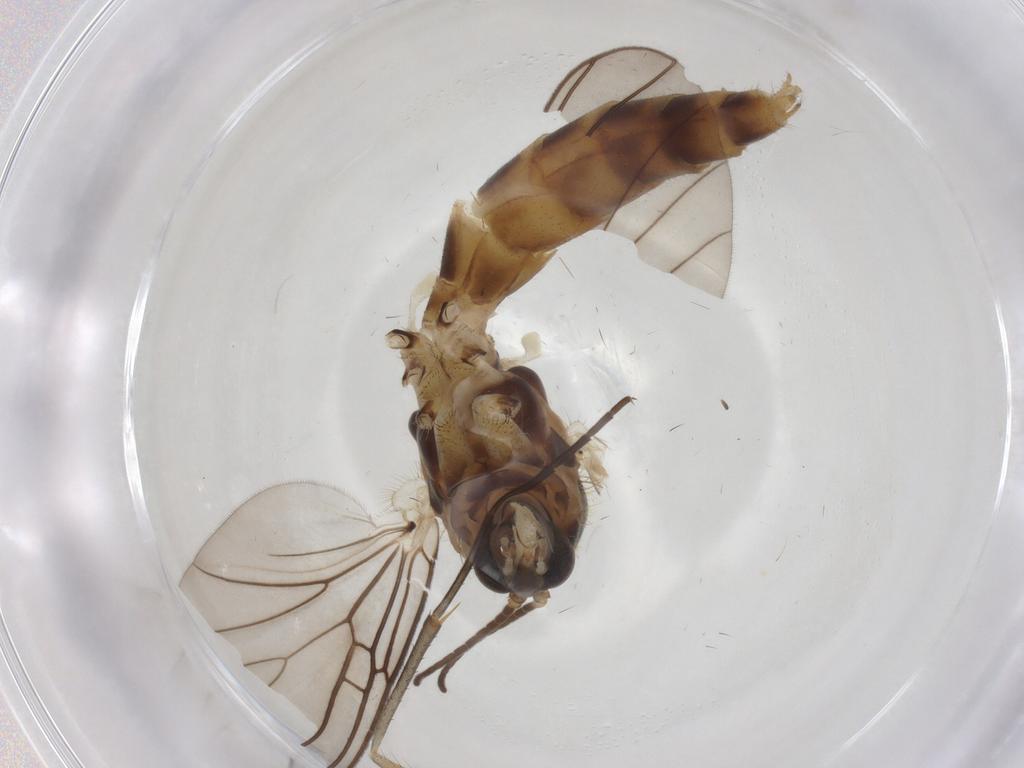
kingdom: Animalia
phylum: Arthropoda
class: Insecta
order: Diptera
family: Mycetophilidae
